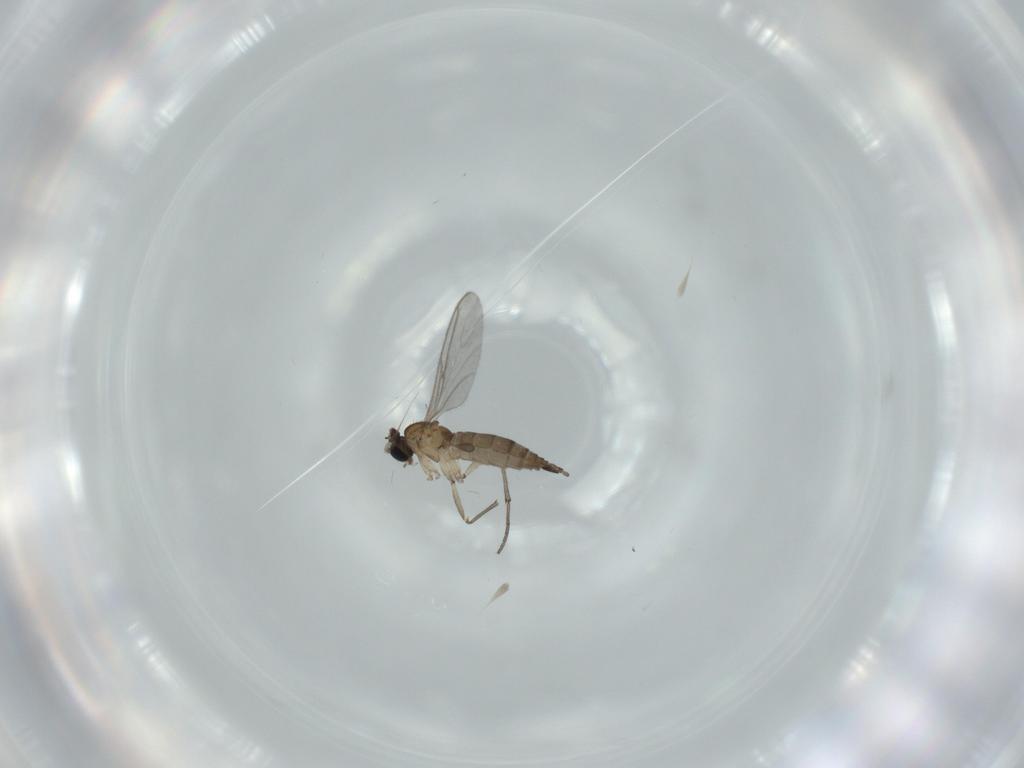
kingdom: Animalia
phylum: Arthropoda
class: Insecta
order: Diptera
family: Sciaridae
